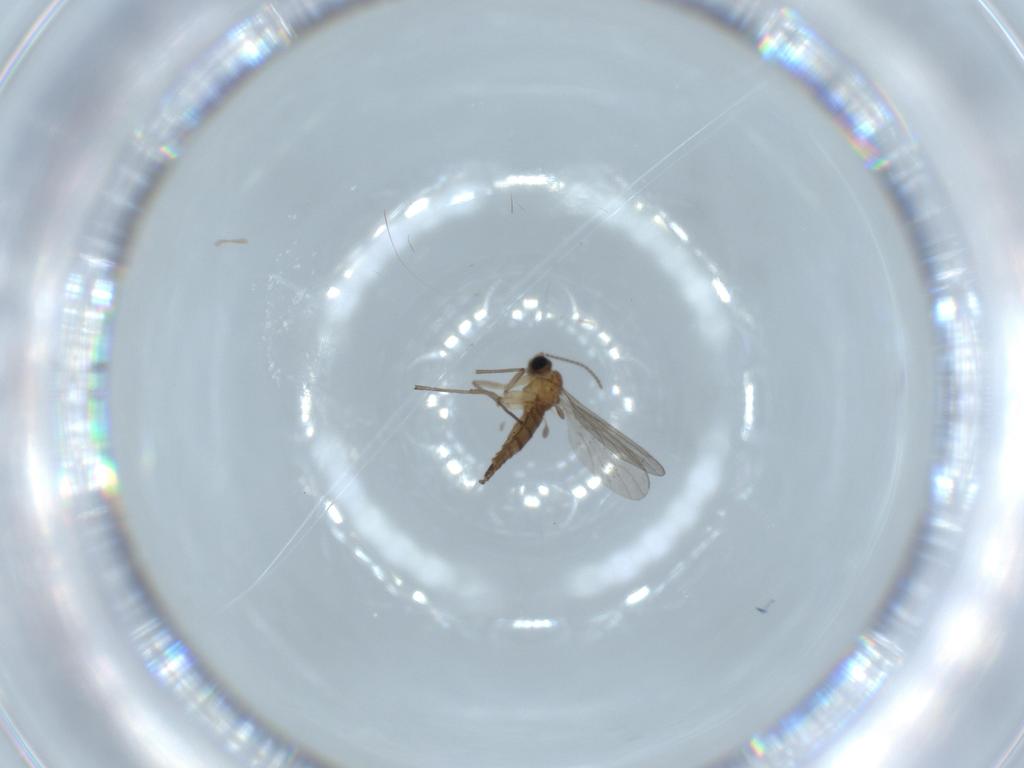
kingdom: Animalia
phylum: Arthropoda
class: Insecta
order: Diptera
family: Sciaridae
